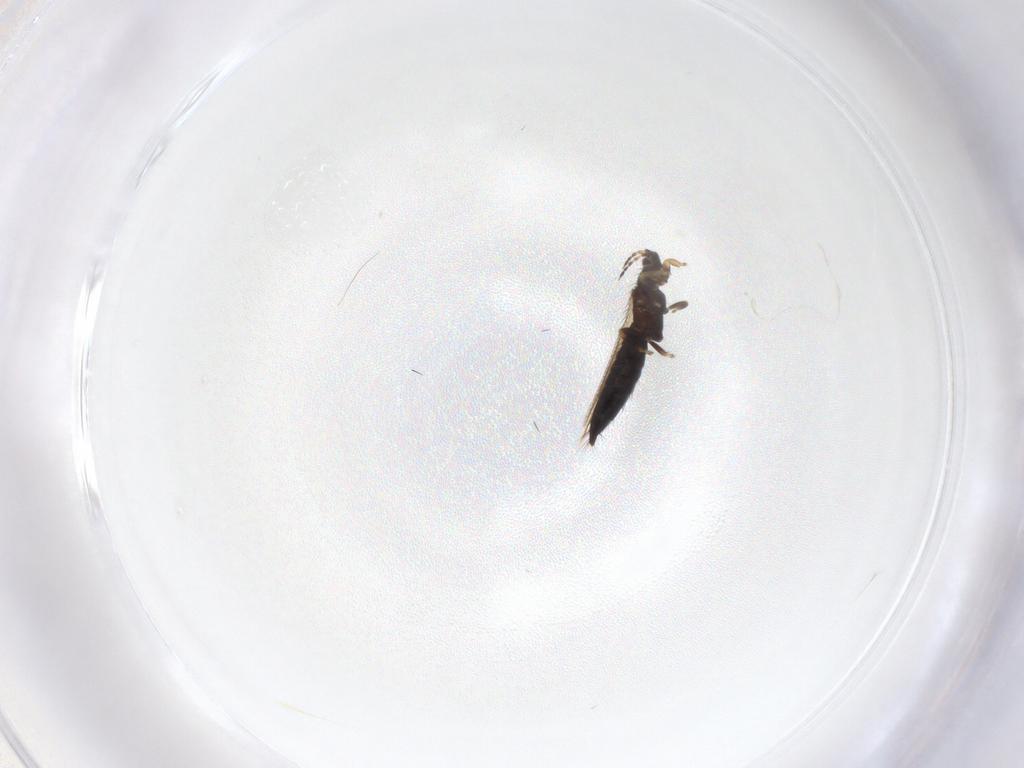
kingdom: Animalia
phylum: Arthropoda
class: Insecta
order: Thysanoptera
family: Thripidae
